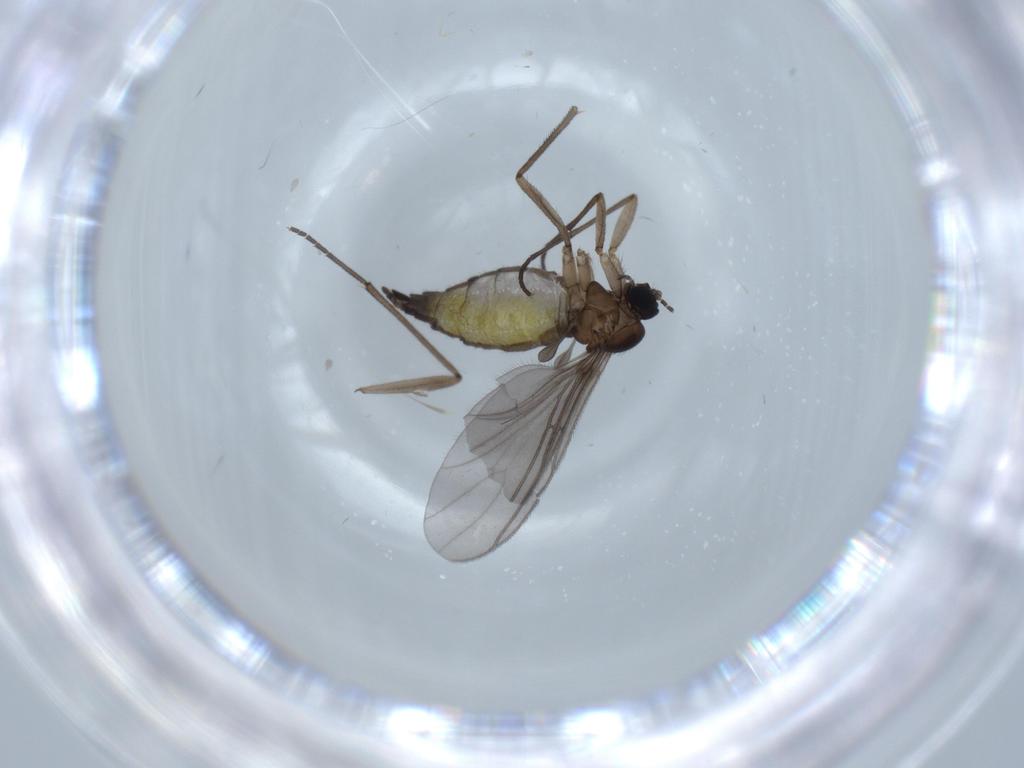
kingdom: Animalia
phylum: Arthropoda
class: Insecta
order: Diptera
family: Sciaridae
